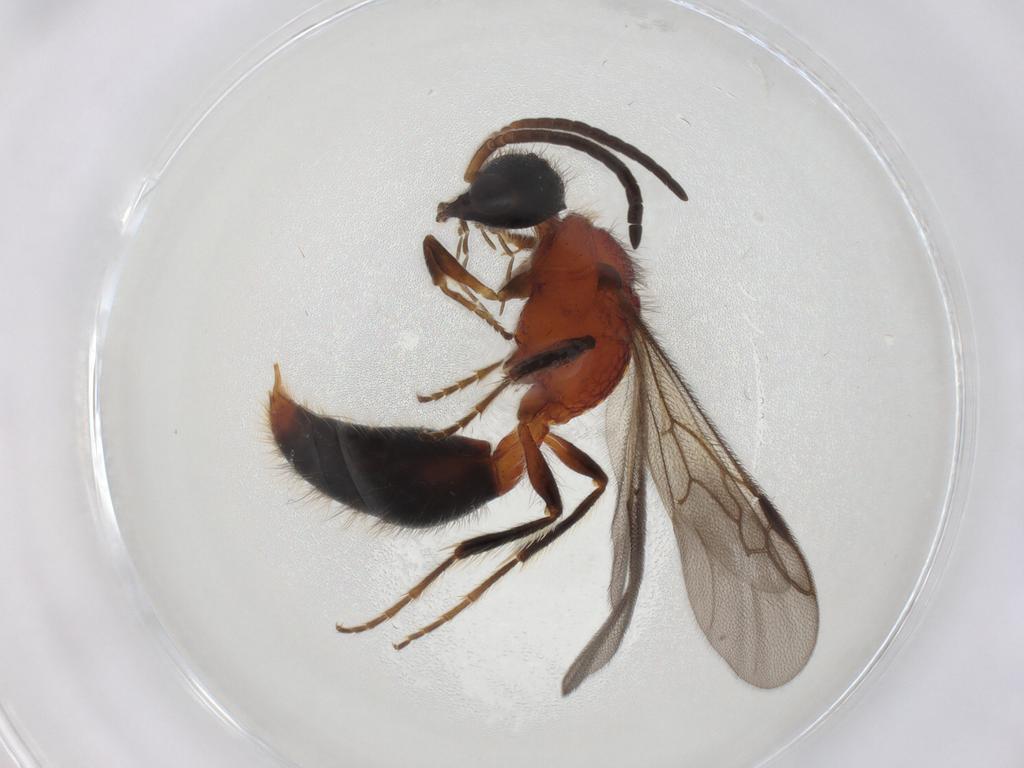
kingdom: Animalia
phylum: Arthropoda
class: Insecta
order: Hymenoptera
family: Mutillidae
